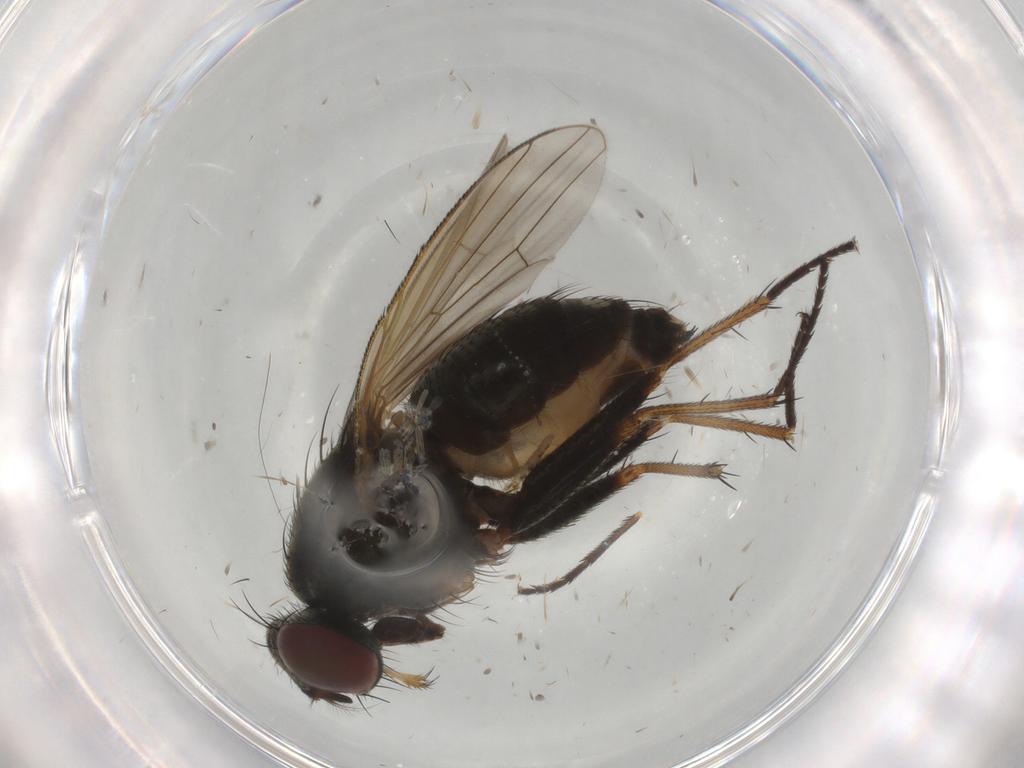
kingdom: Animalia
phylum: Arthropoda
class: Insecta
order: Diptera
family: Muscidae
